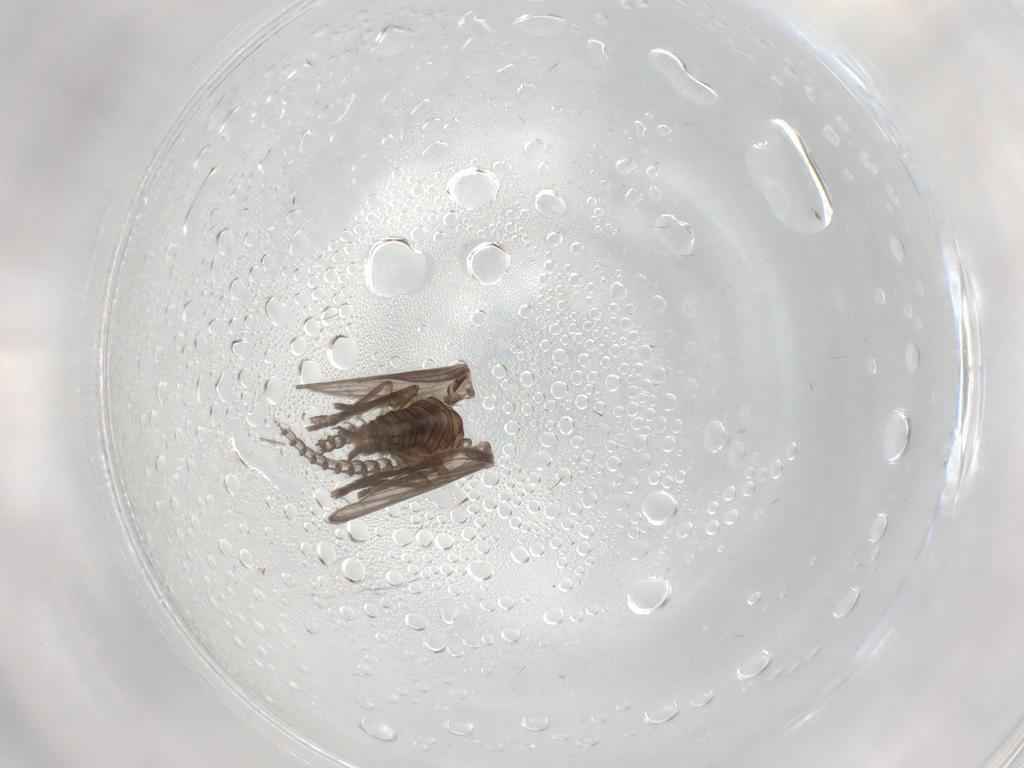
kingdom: Animalia
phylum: Arthropoda
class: Insecta
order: Diptera
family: Psychodidae
